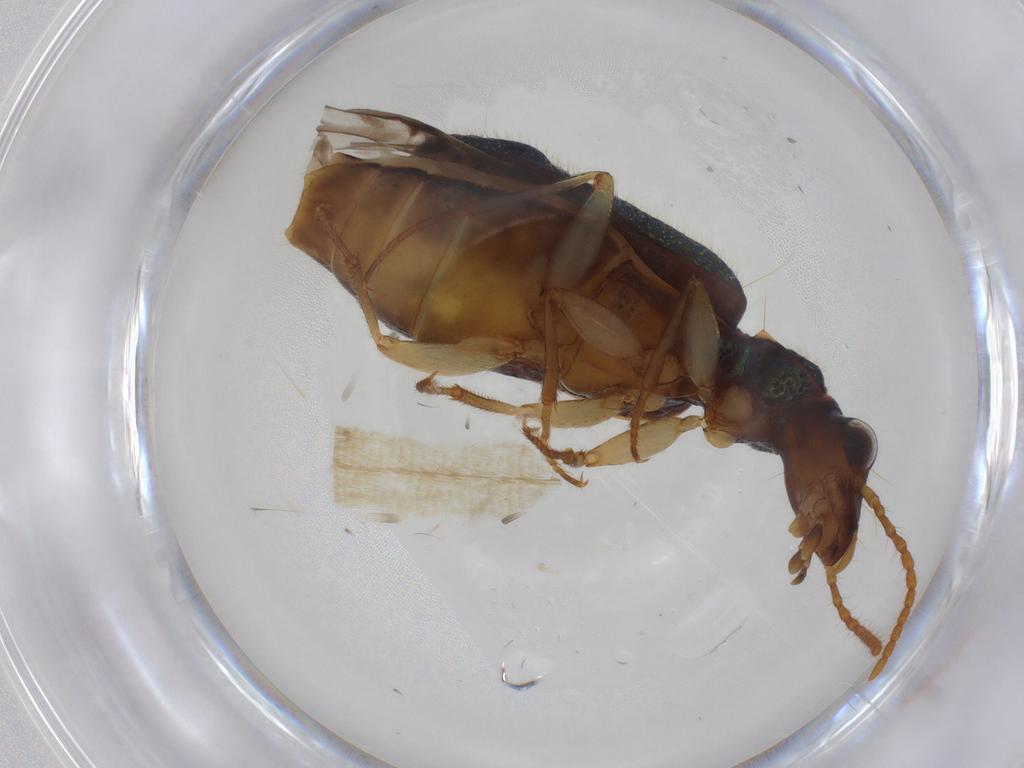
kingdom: Animalia
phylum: Arthropoda
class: Insecta
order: Coleoptera
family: Carabidae
